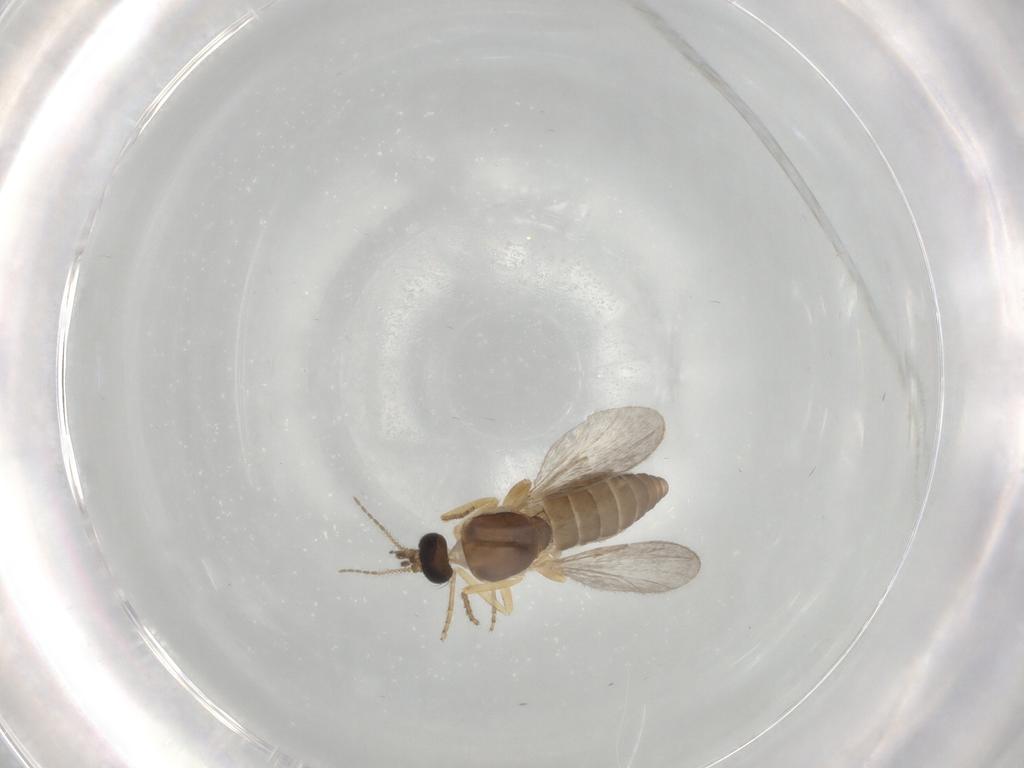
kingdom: Animalia
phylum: Arthropoda
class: Insecta
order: Diptera
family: Ceratopogonidae
